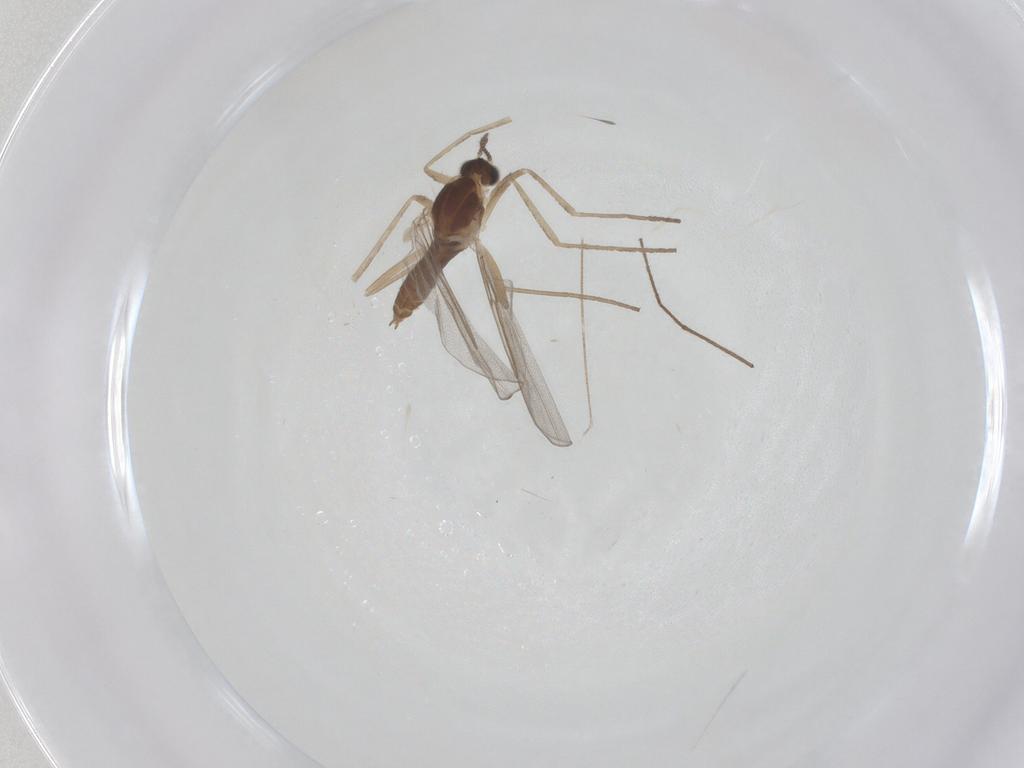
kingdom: Animalia
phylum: Arthropoda
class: Insecta
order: Diptera
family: Cecidomyiidae
